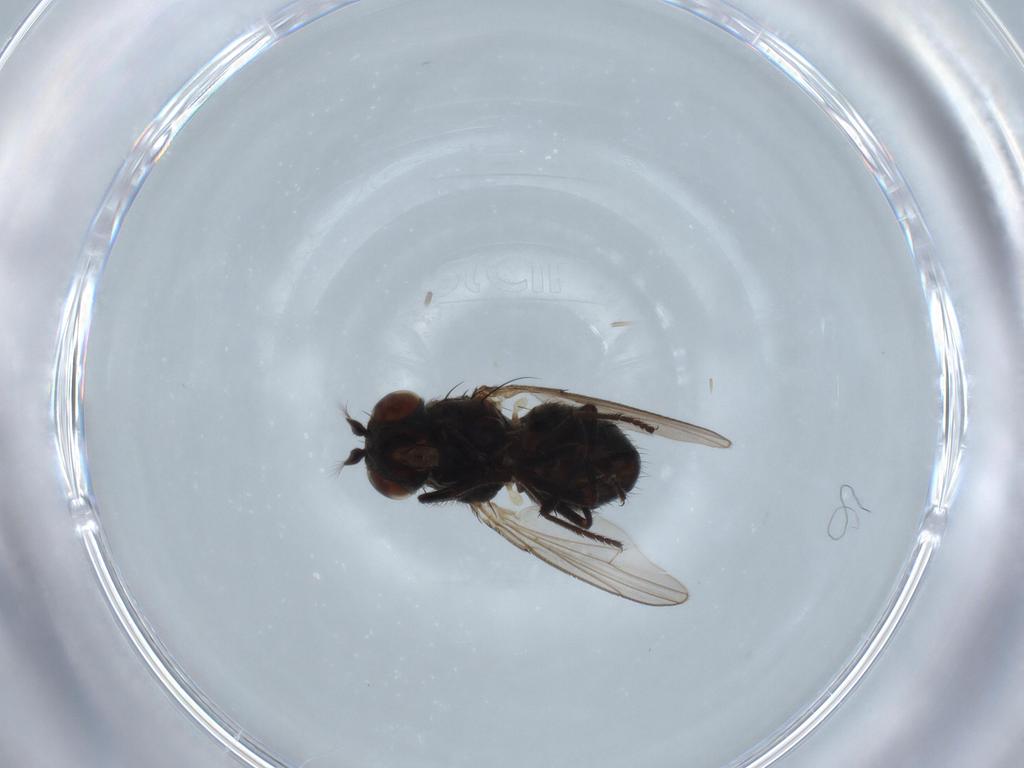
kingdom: Animalia
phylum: Arthropoda
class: Insecta
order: Diptera
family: Ephydridae
